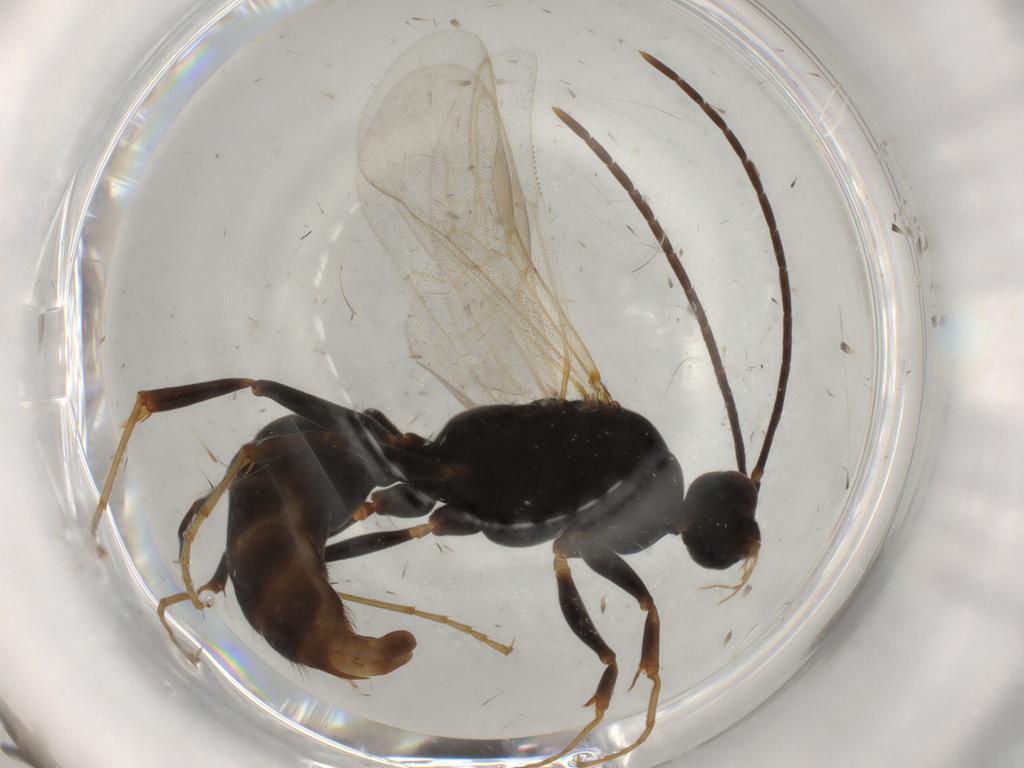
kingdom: Animalia
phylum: Arthropoda
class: Insecta
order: Hymenoptera
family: Formicidae
